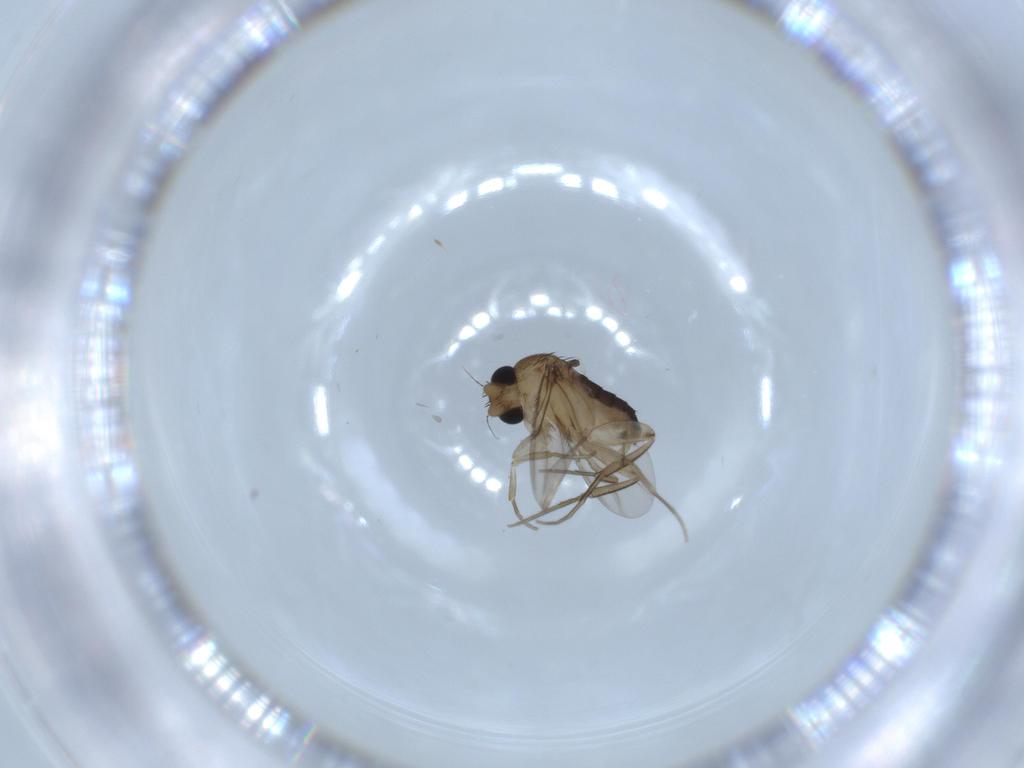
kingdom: Animalia
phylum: Arthropoda
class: Insecta
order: Diptera
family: Phoridae
